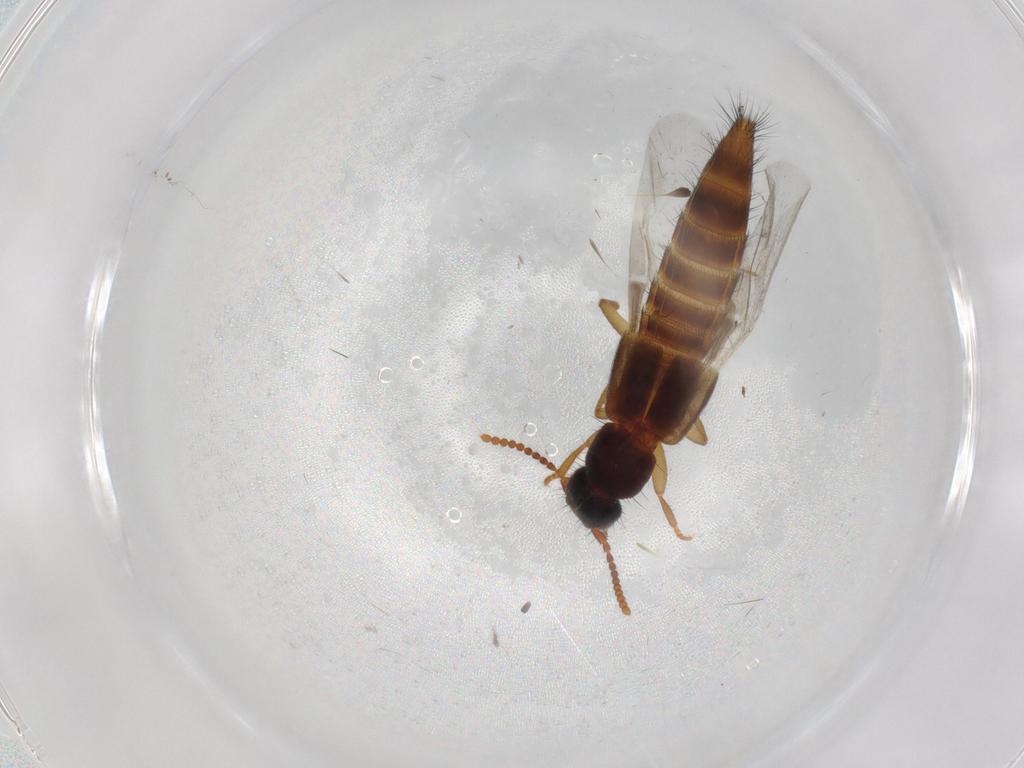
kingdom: Animalia
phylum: Arthropoda
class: Insecta
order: Coleoptera
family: Staphylinidae
